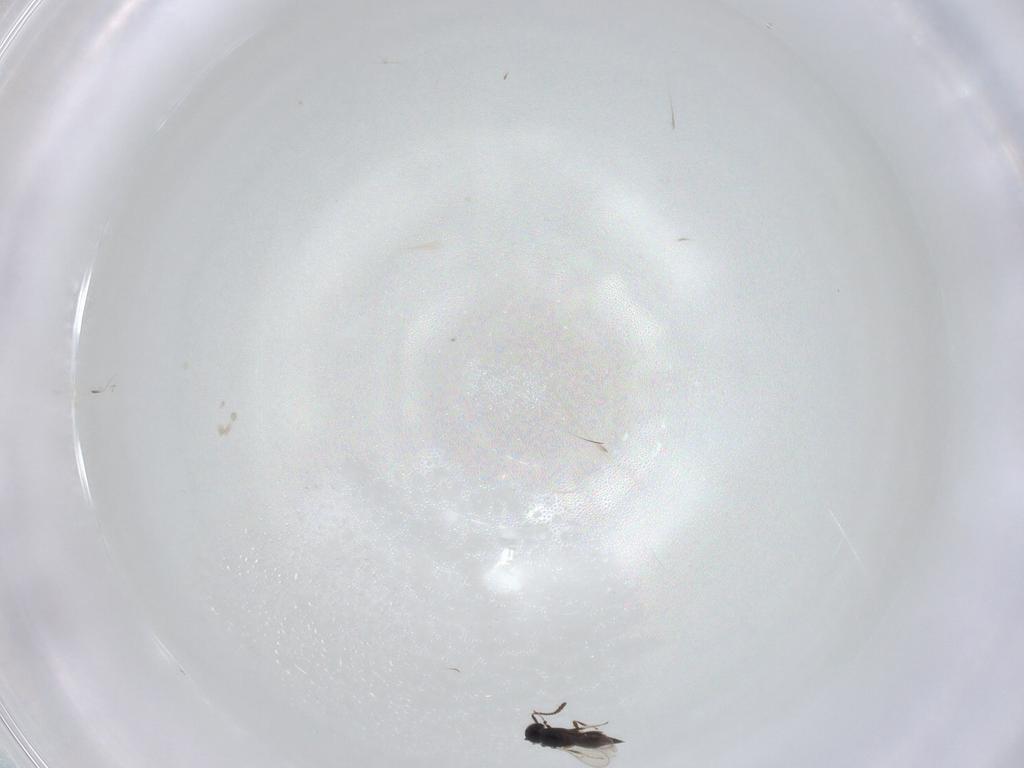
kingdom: Animalia
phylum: Arthropoda
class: Insecta
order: Hymenoptera
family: Scelionidae
